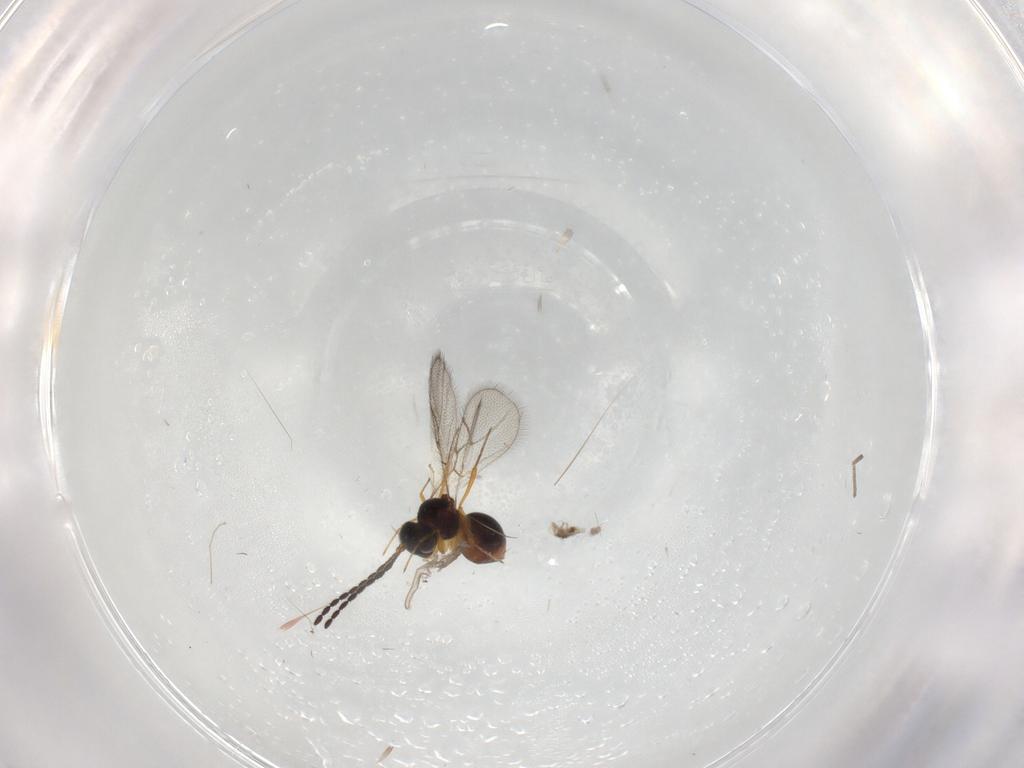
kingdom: Animalia
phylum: Arthropoda
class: Insecta
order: Hymenoptera
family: Figitidae
